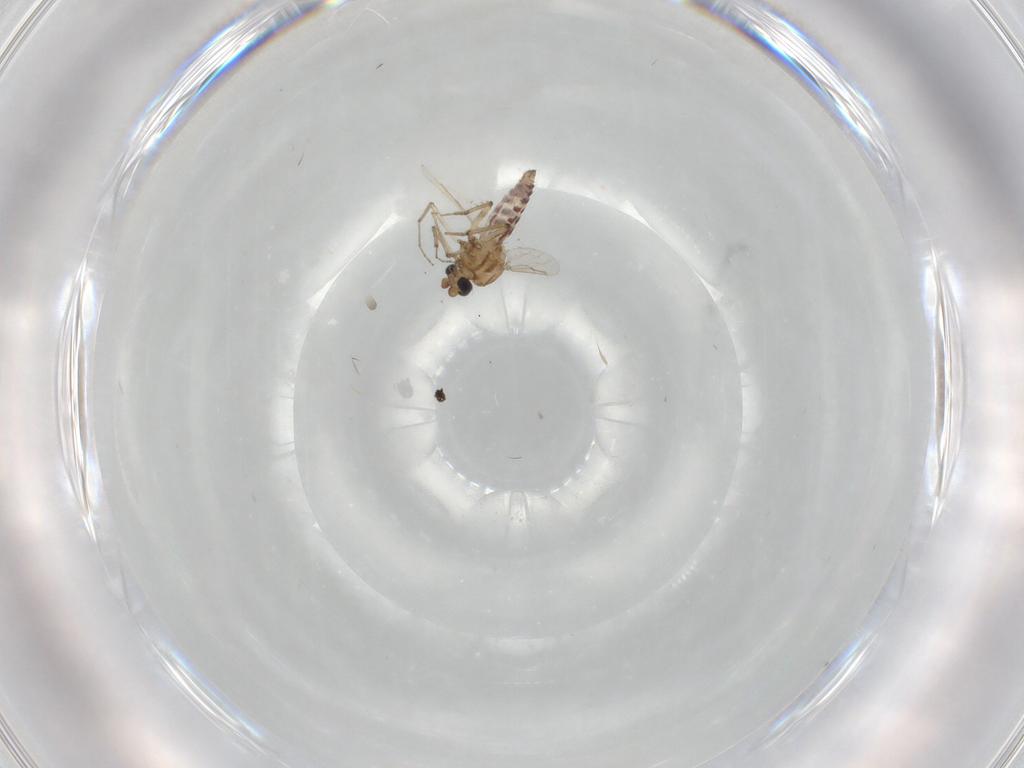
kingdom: Animalia
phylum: Arthropoda
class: Insecta
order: Diptera
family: Ceratopogonidae
